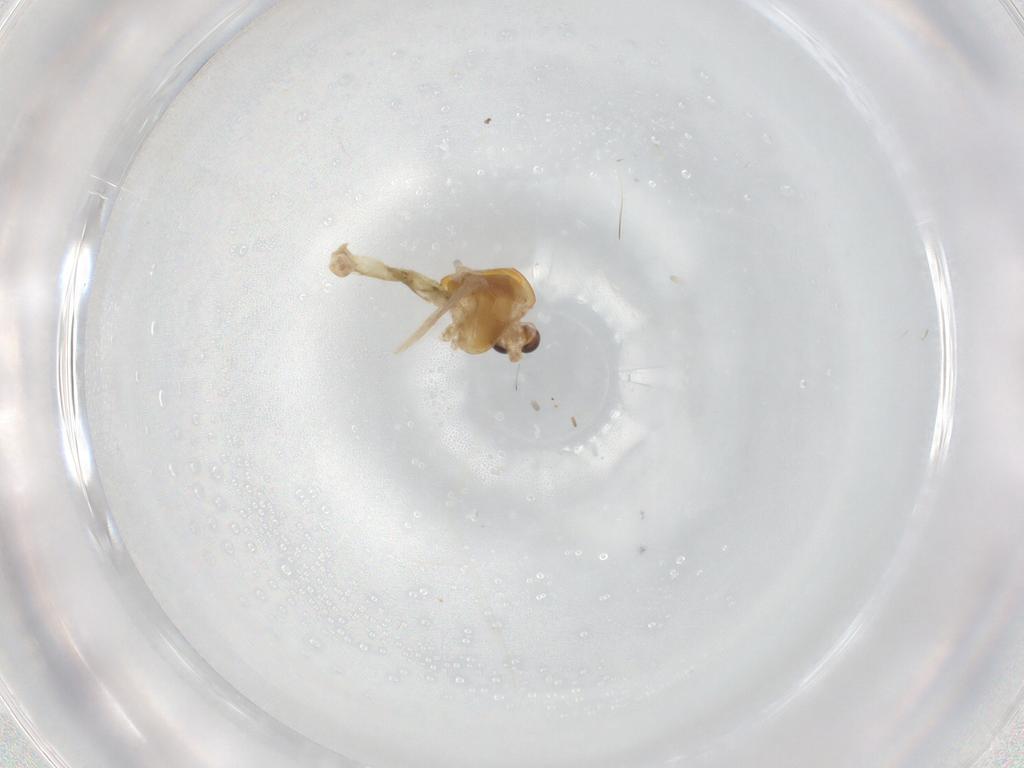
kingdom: Animalia
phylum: Arthropoda
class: Insecta
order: Diptera
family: Chironomidae
